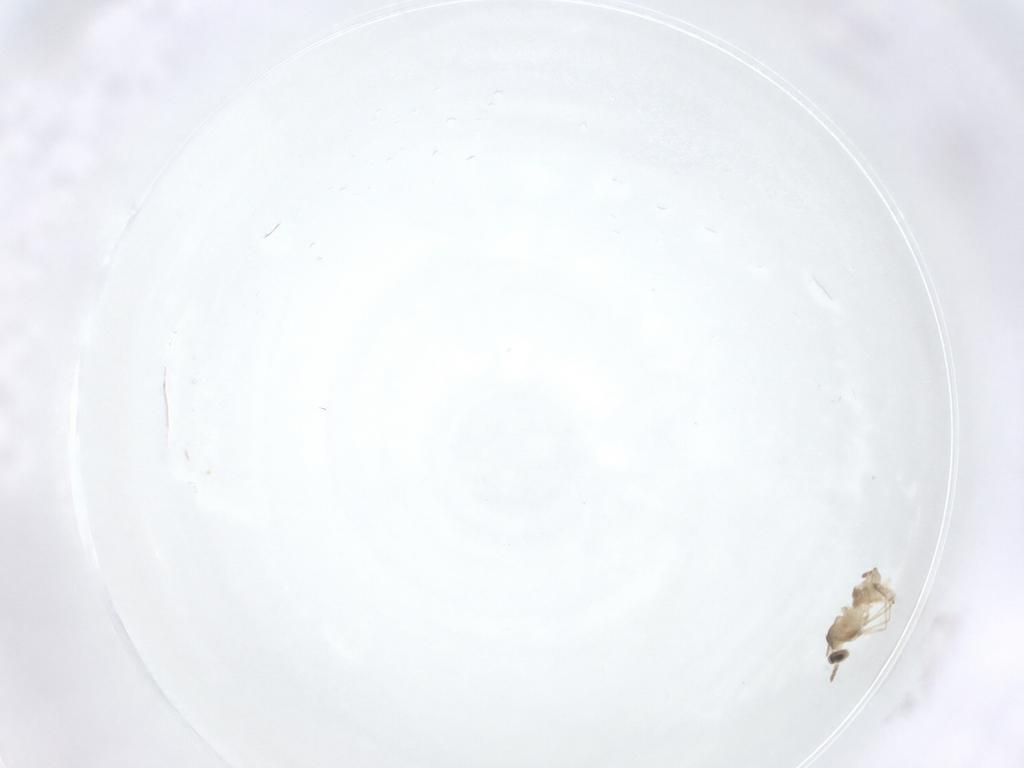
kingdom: Animalia
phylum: Arthropoda
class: Insecta
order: Diptera
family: Cecidomyiidae
